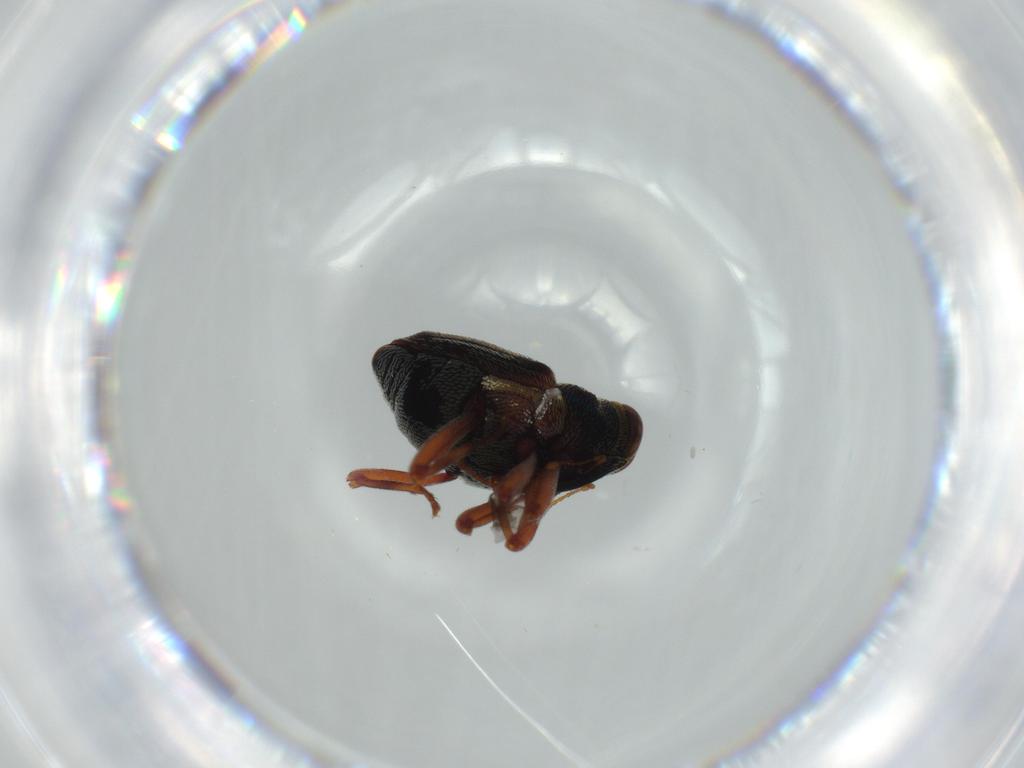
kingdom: Animalia
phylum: Arthropoda
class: Insecta
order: Coleoptera
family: Curculionidae
